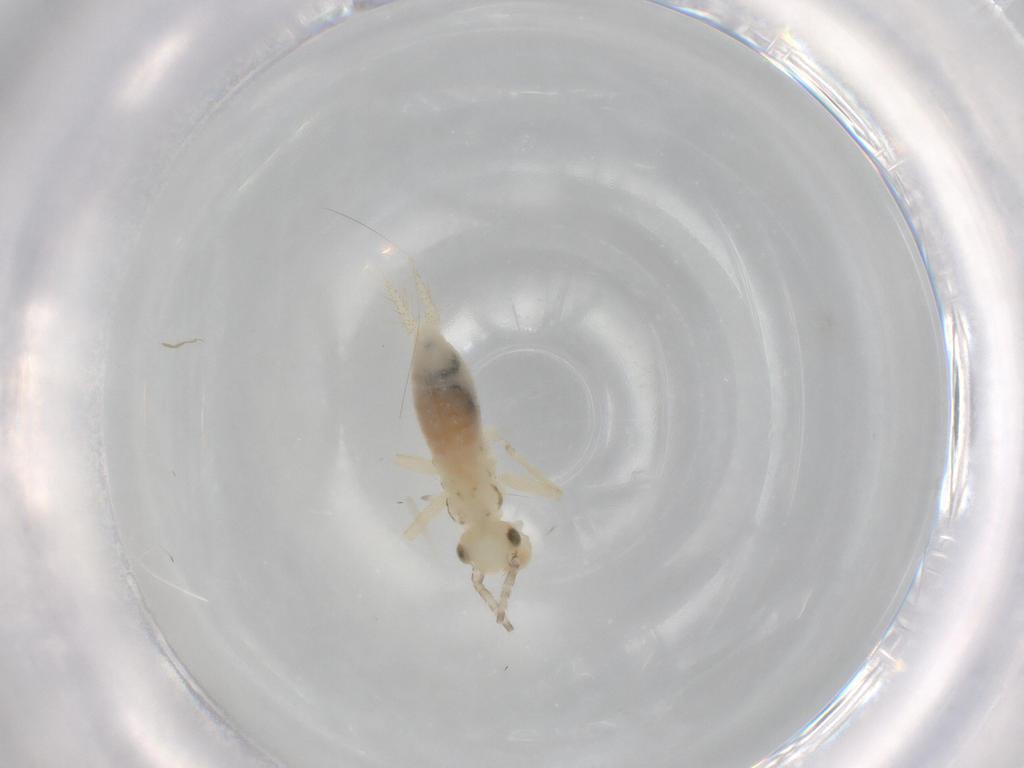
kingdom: Animalia
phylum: Arthropoda
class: Insecta
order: Orthoptera
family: Trigonidiidae
